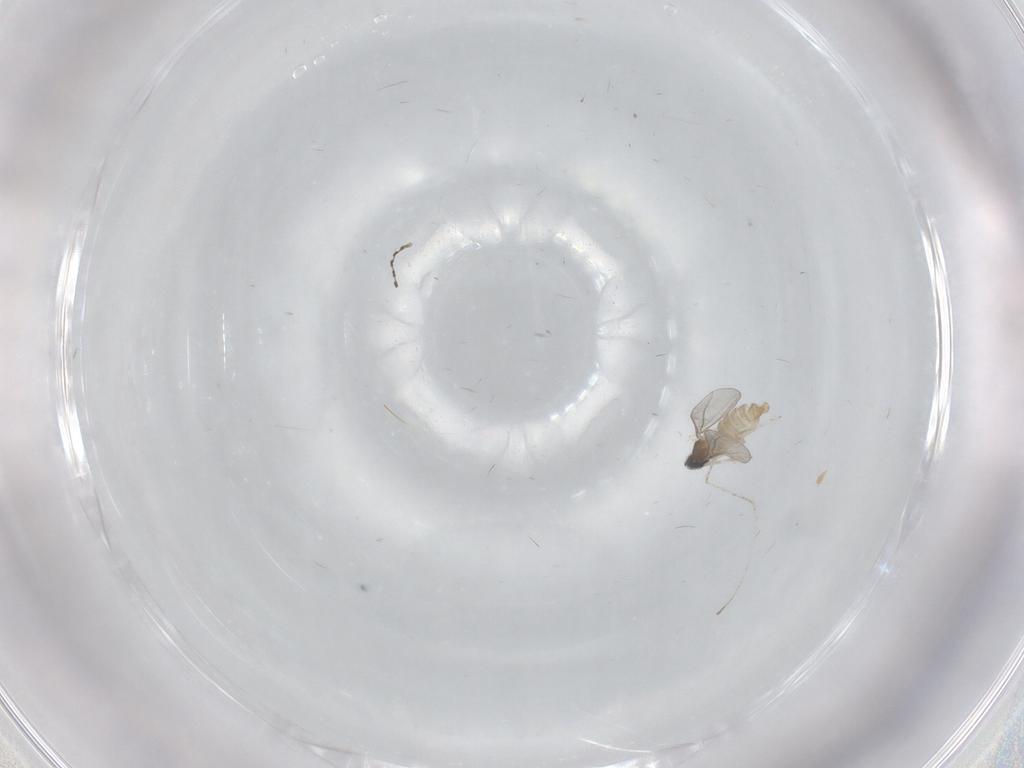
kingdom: Animalia
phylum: Arthropoda
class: Insecta
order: Diptera
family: Cecidomyiidae
